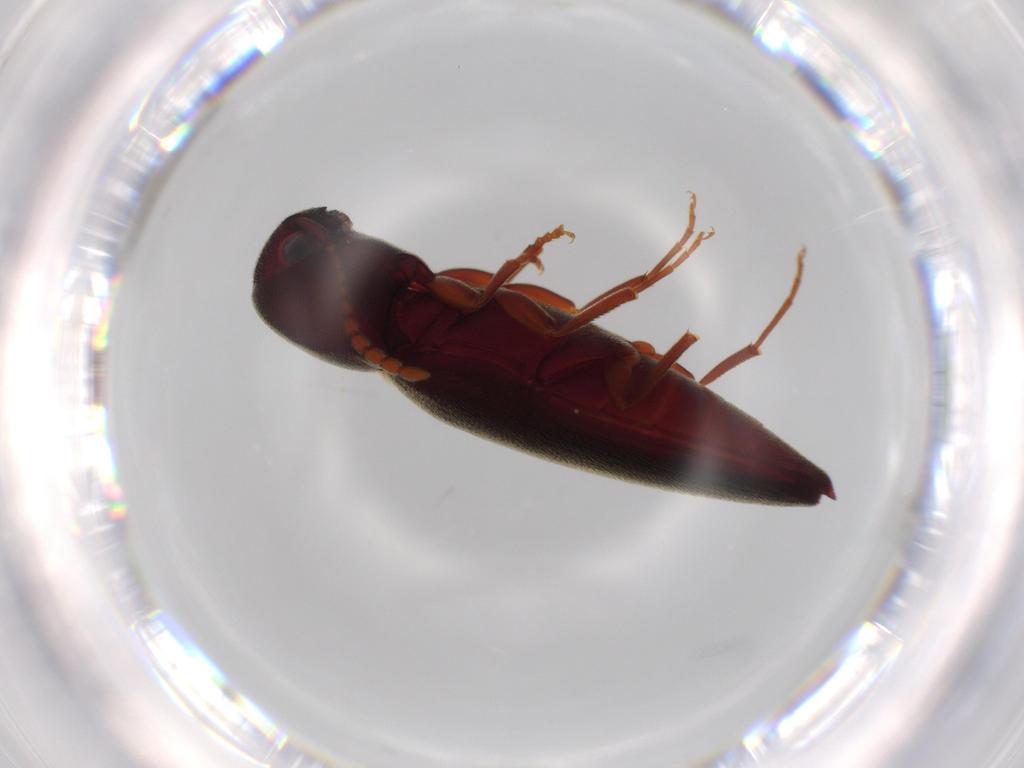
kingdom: Animalia
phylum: Arthropoda
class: Insecta
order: Coleoptera
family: Eucnemidae
